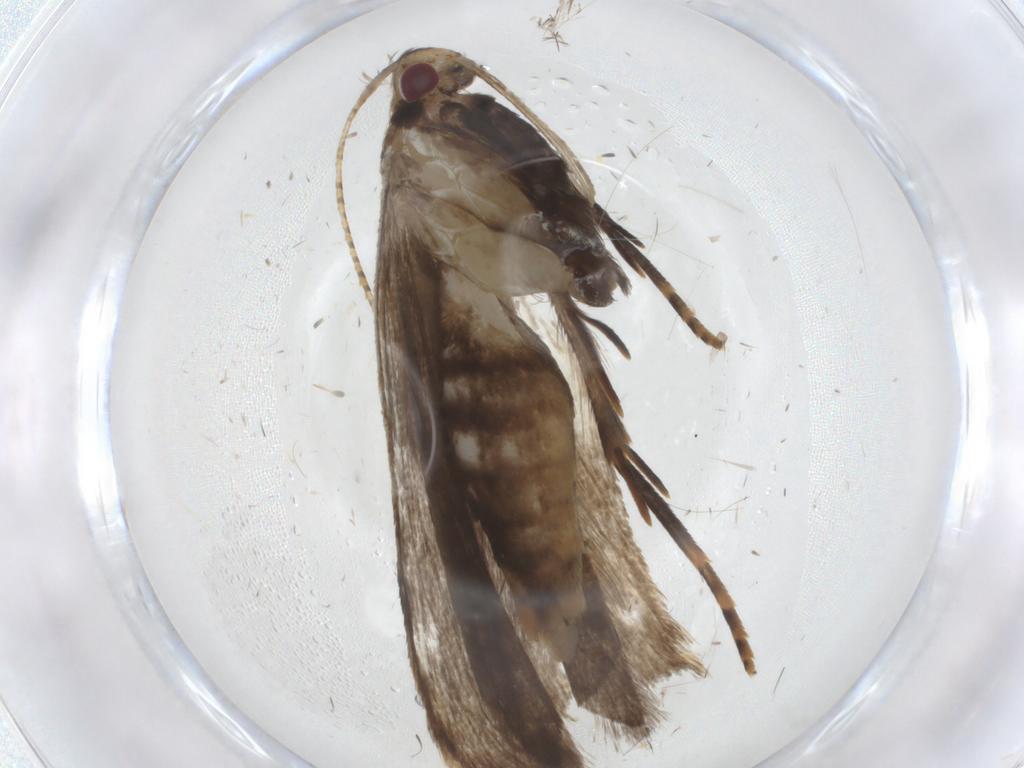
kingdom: Animalia
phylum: Arthropoda
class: Insecta
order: Lepidoptera
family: Gelechiidae
